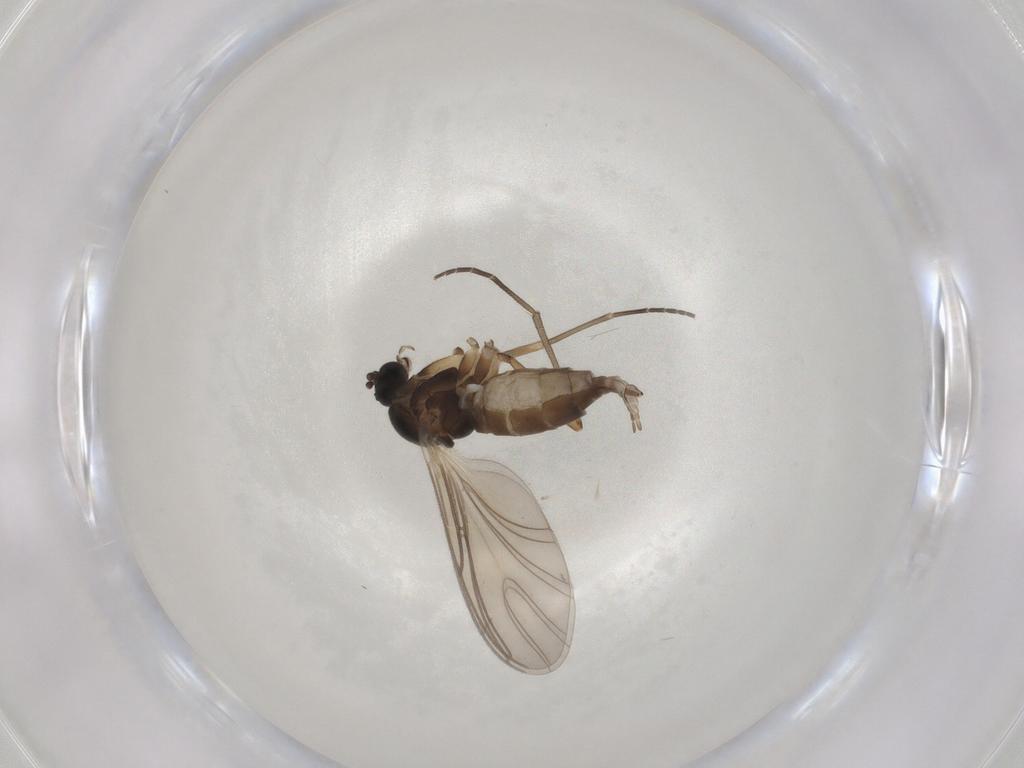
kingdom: Animalia
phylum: Arthropoda
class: Insecta
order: Diptera
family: Sciaridae
